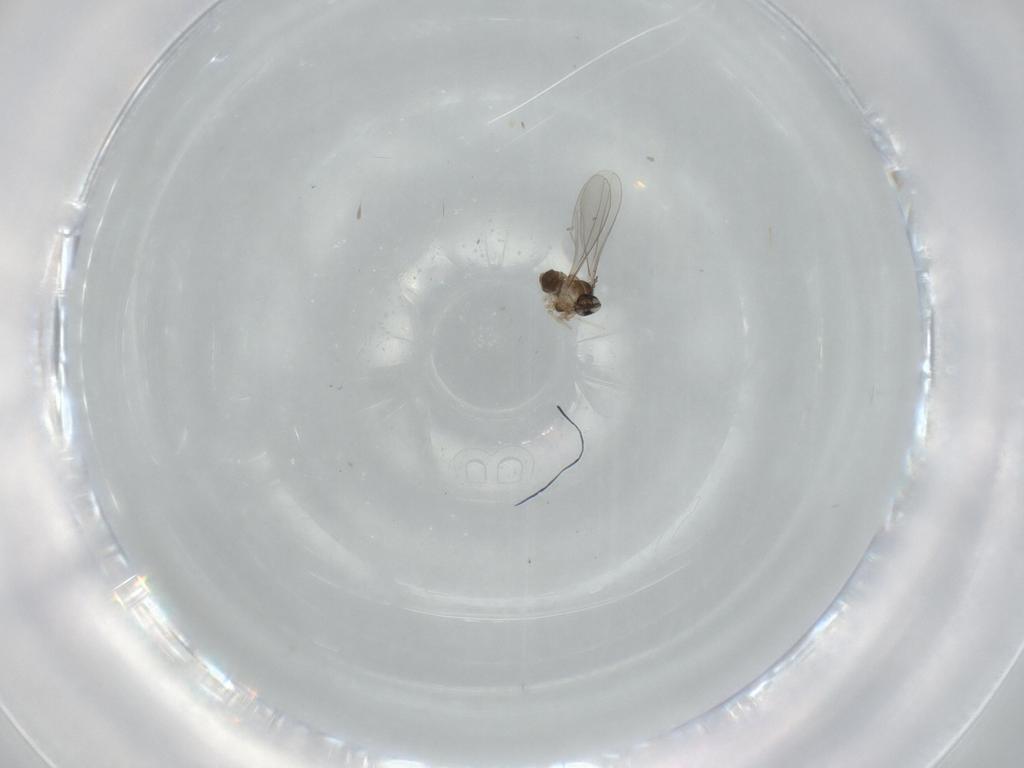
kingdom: Animalia
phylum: Arthropoda
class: Insecta
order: Diptera
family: Cecidomyiidae
